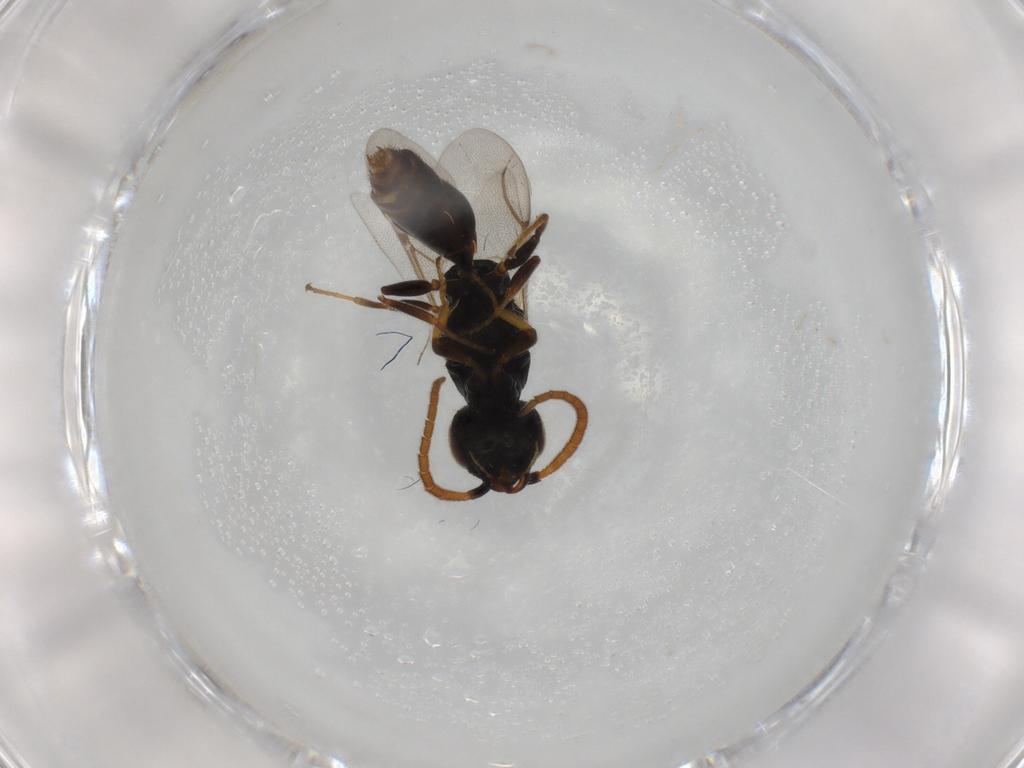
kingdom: Animalia
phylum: Arthropoda
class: Insecta
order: Hymenoptera
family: Bethylidae
